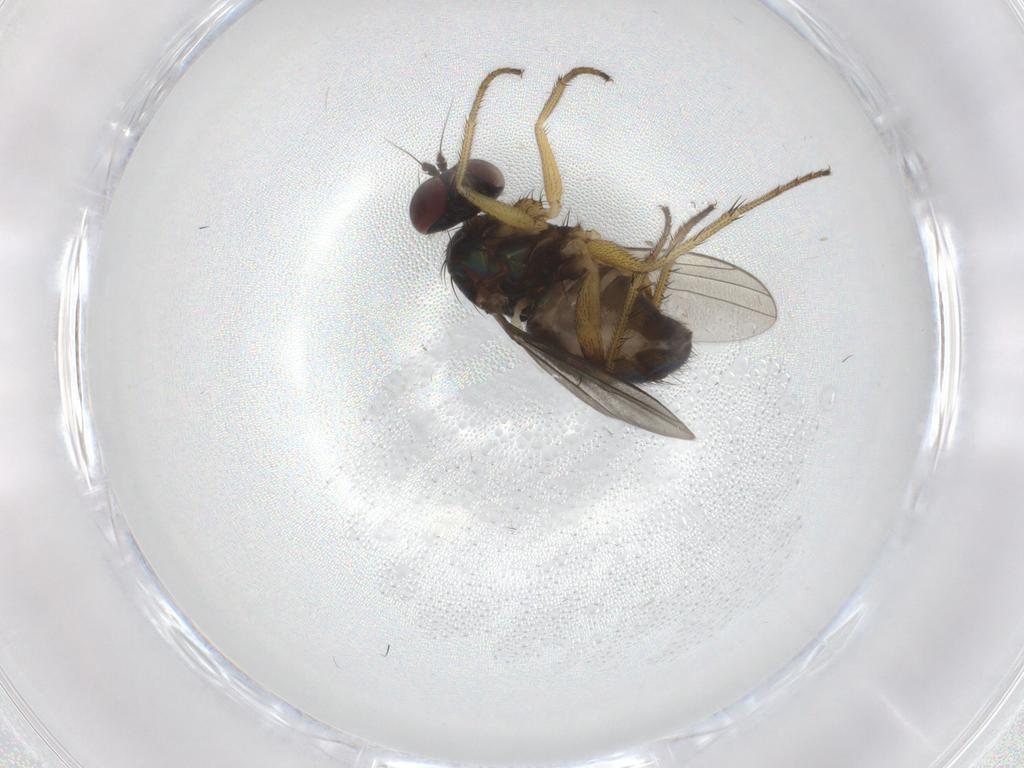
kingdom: Animalia
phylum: Arthropoda
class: Insecta
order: Diptera
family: Dolichopodidae
